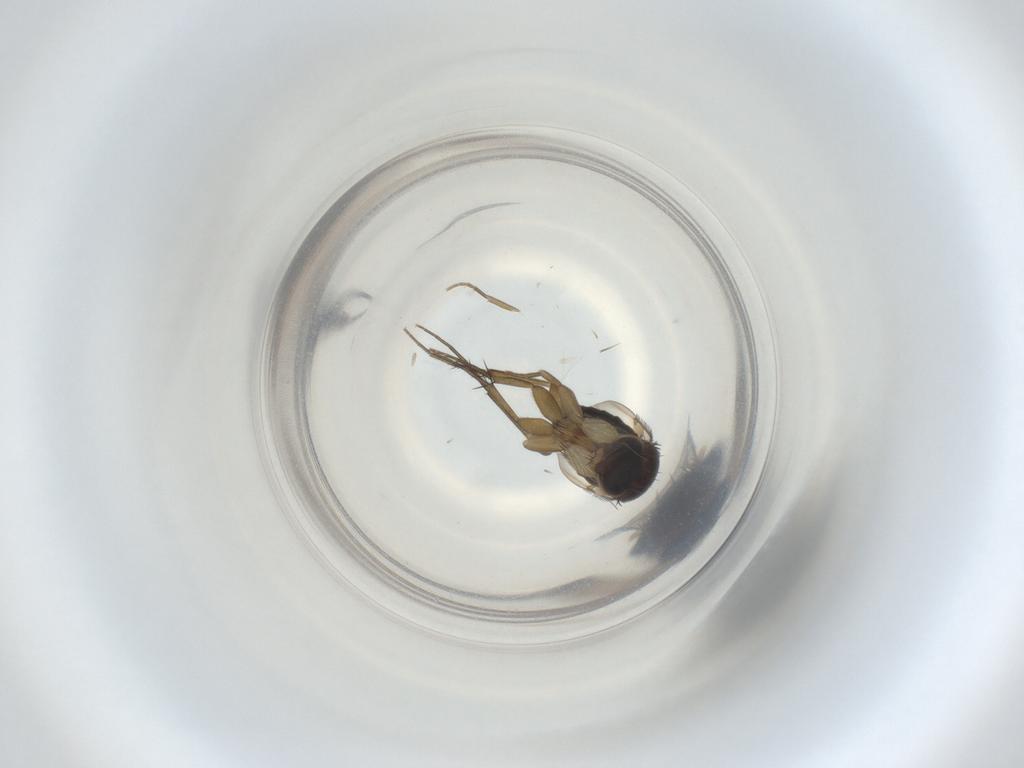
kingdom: Animalia
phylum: Arthropoda
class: Insecta
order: Diptera
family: Phoridae
